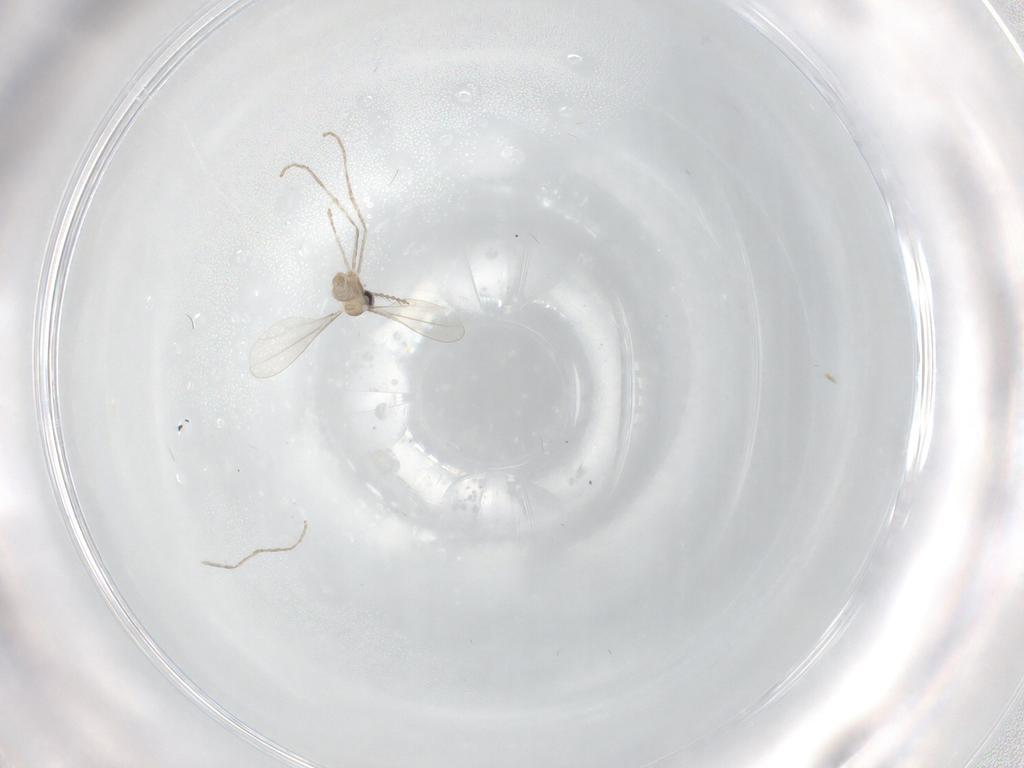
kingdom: Animalia
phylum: Arthropoda
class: Insecta
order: Diptera
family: Cecidomyiidae
